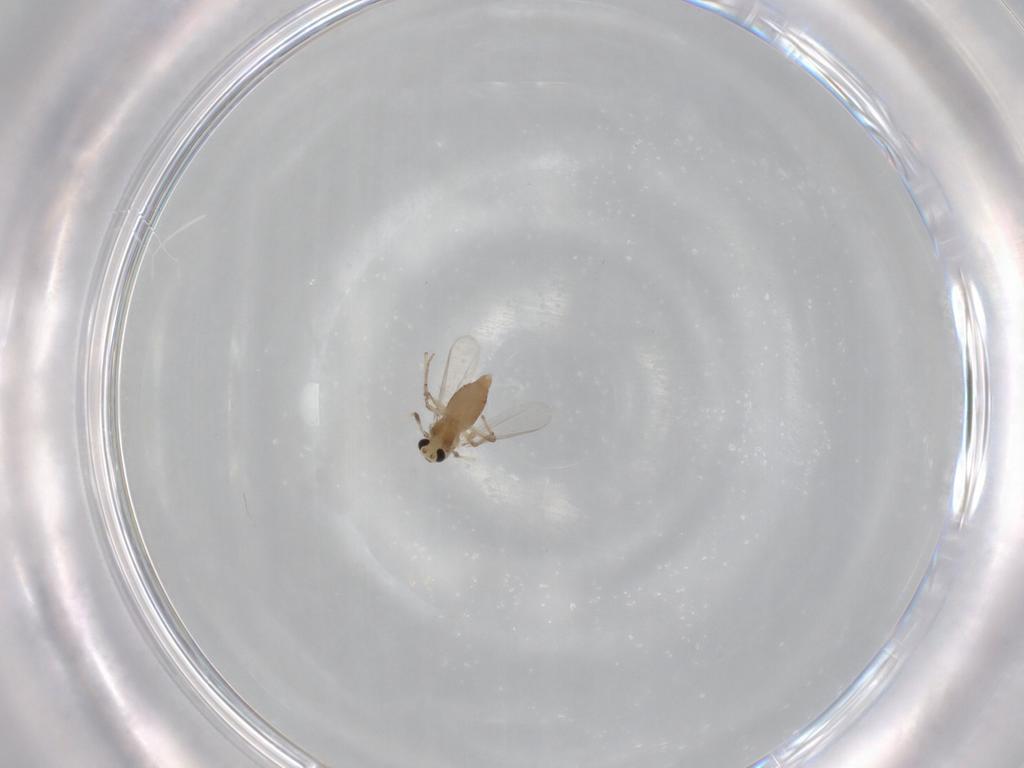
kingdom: Animalia
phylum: Arthropoda
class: Insecta
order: Diptera
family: Chironomidae
